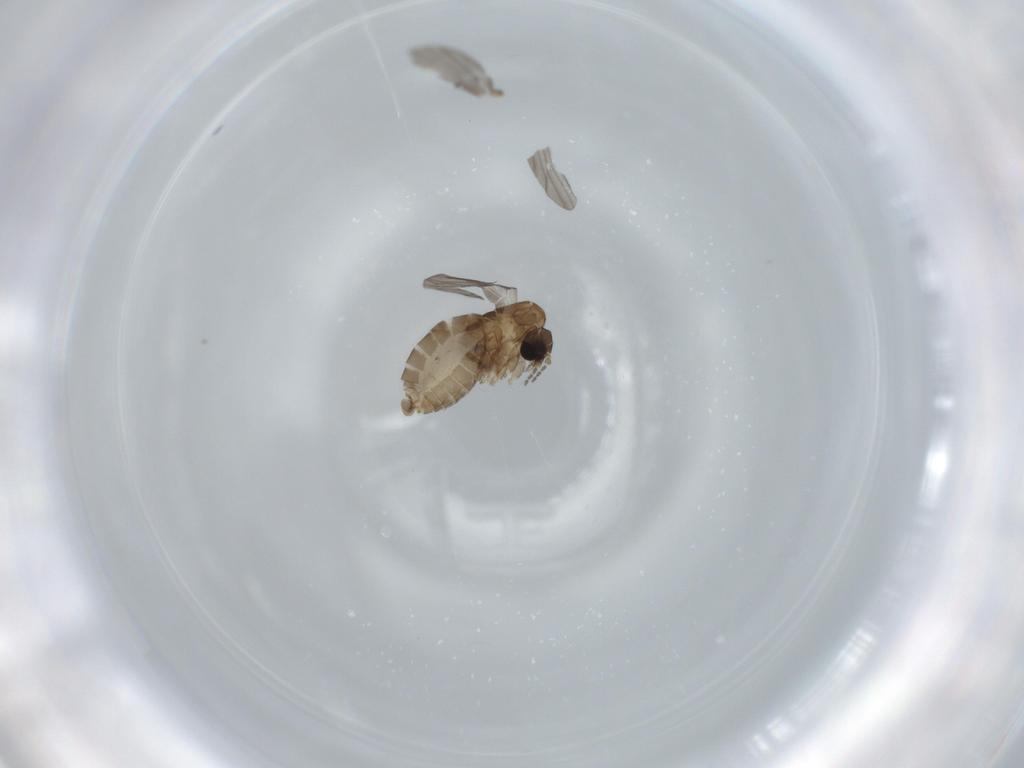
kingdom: Animalia
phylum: Arthropoda
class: Insecta
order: Diptera
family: Psychodidae
